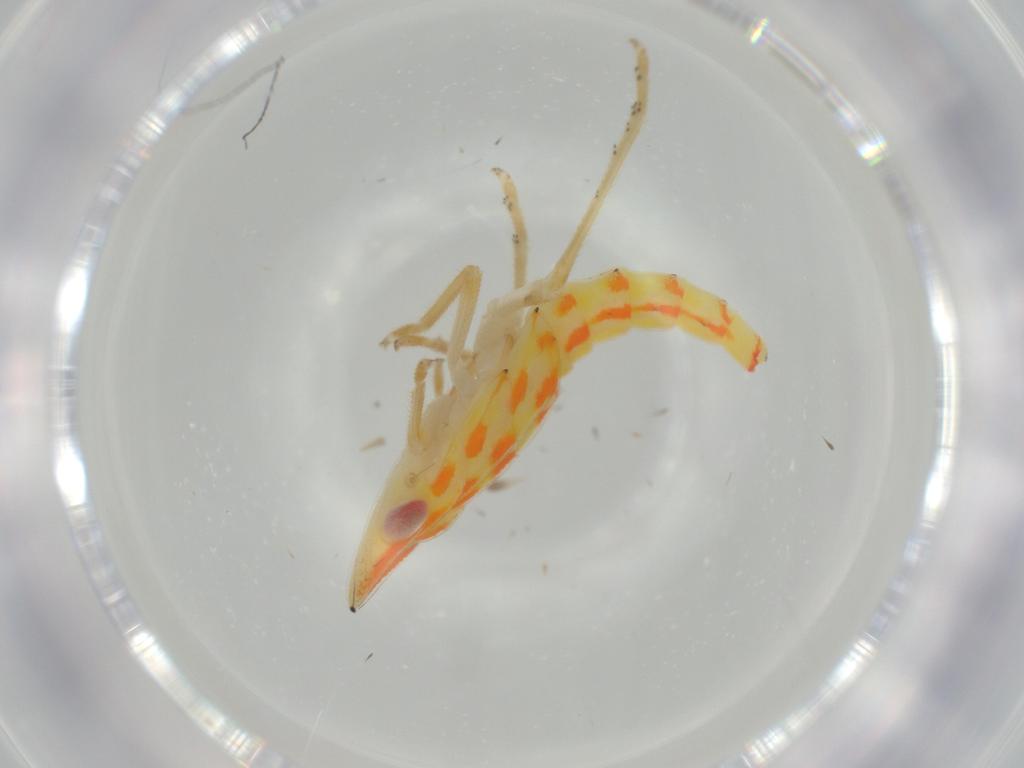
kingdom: Animalia
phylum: Arthropoda
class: Insecta
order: Hemiptera
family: Tropiduchidae
